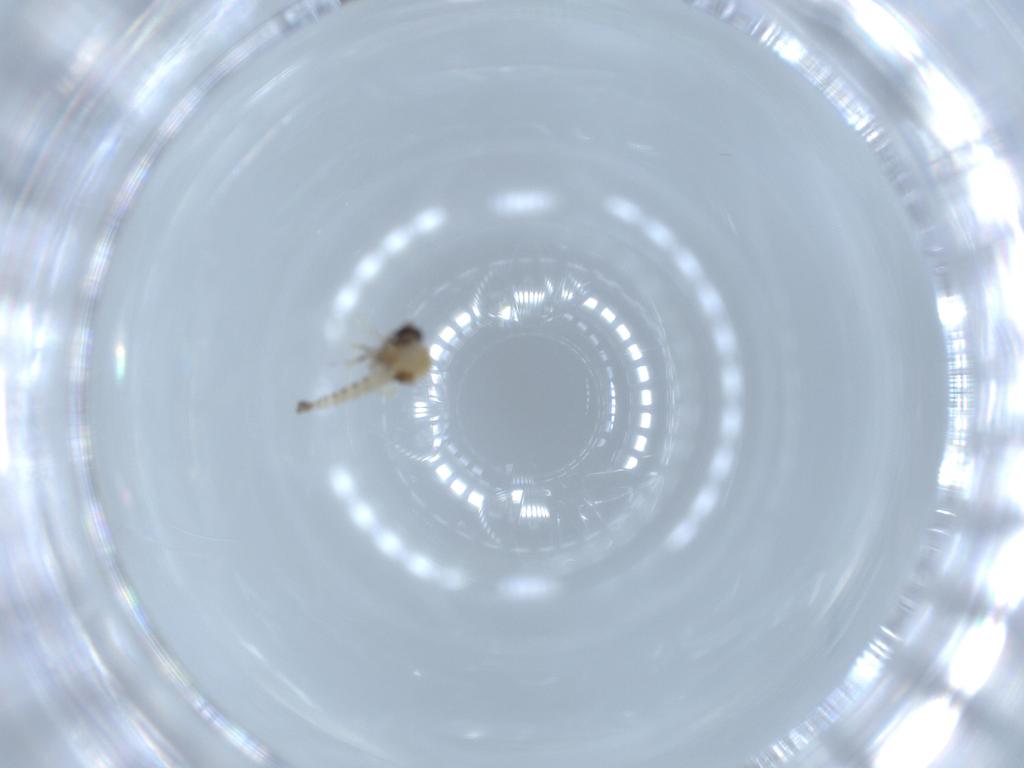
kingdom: Animalia
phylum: Arthropoda
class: Insecta
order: Diptera
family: Ceratopogonidae
